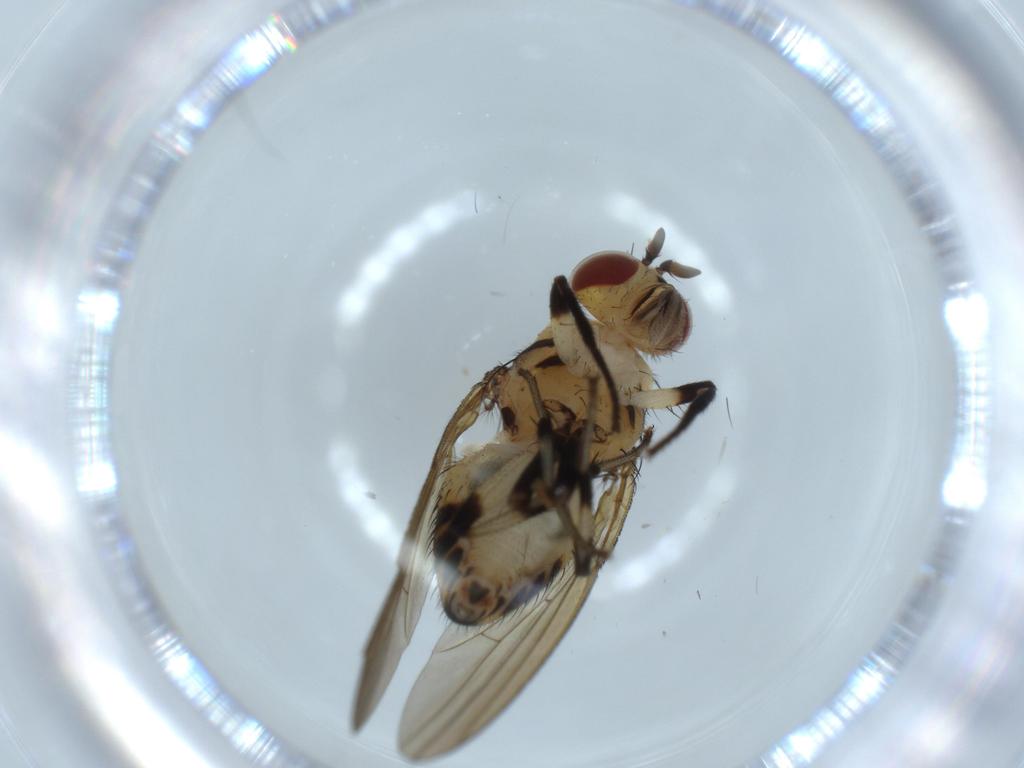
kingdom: Animalia
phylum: Arthropoda
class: Insecta
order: Diptera
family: Lauxaniidae
